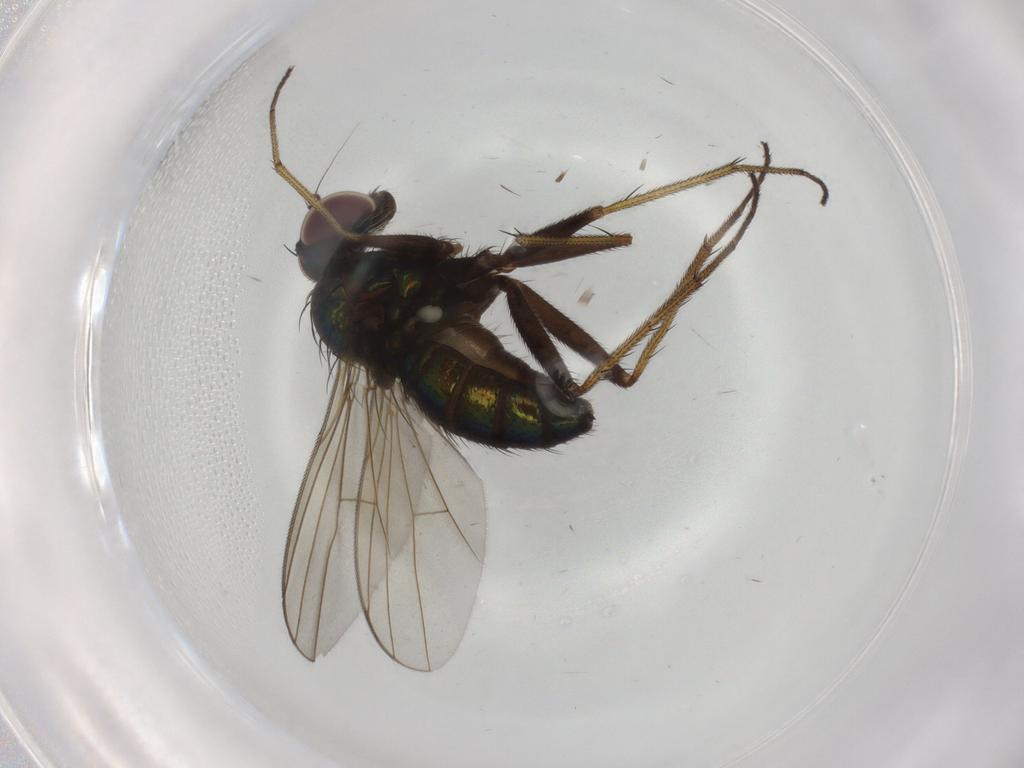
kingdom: Animalia
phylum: Arthropoda
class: Insecta
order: Diptera
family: Dolichopodidae
